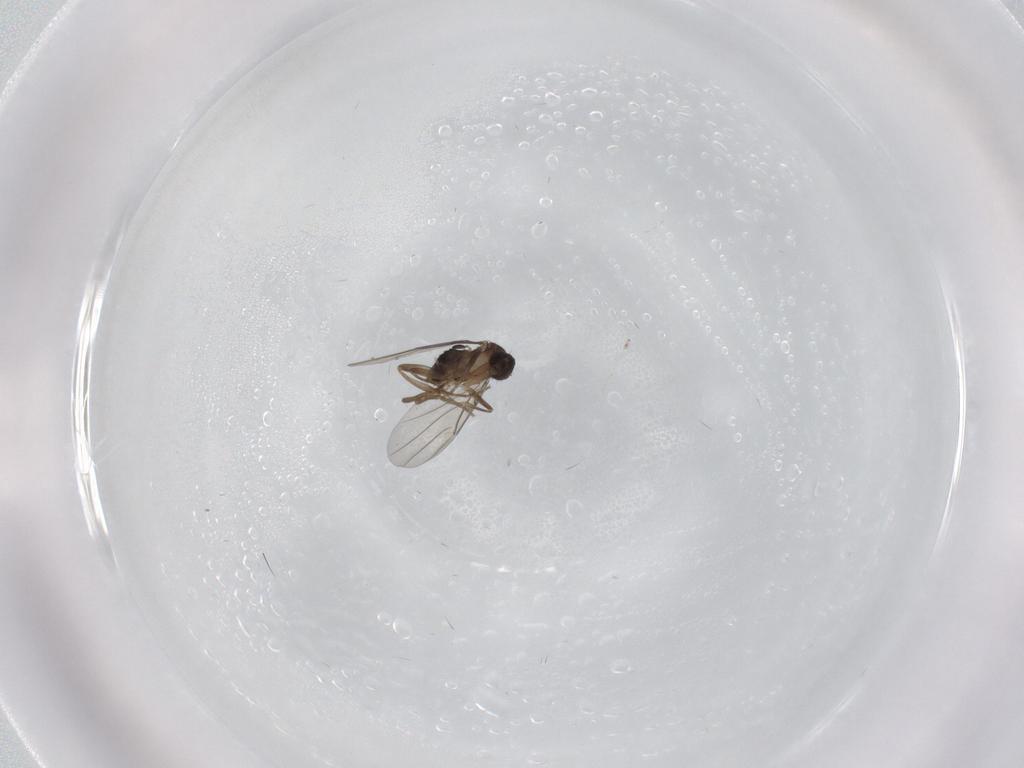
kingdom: Animalia
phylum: Arthropoda
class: Insecta
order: Diptera
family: Phoridae
